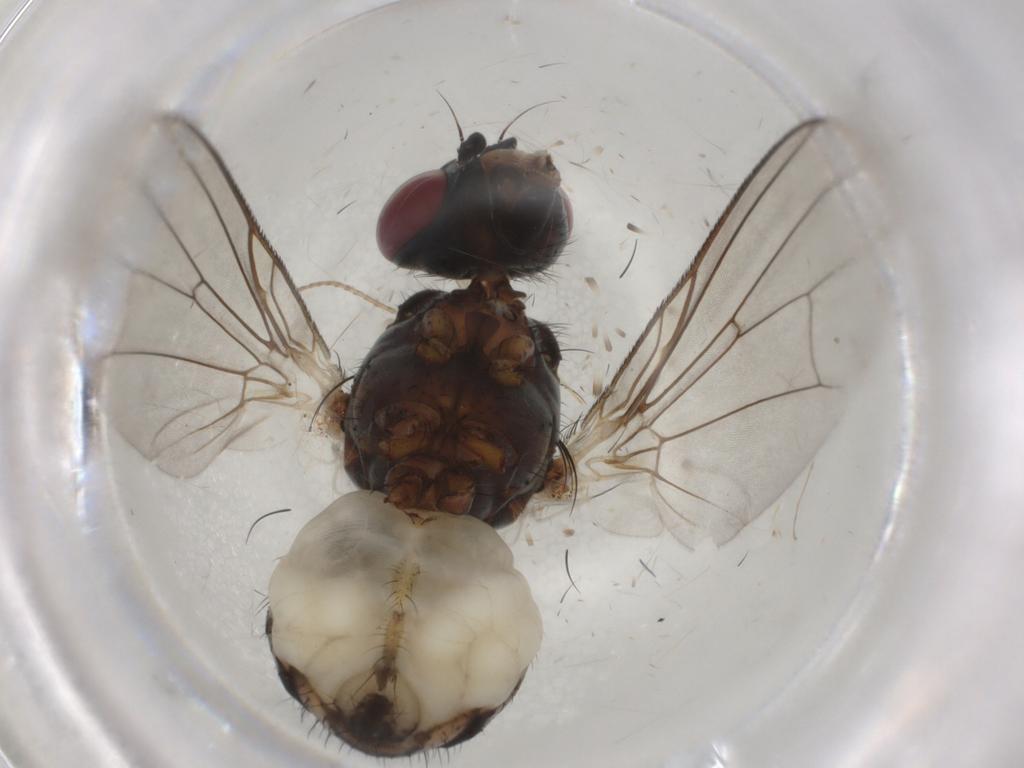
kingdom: Animalia
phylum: Arthropoda
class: Insecta
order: Diptera
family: Anthomyiidae
